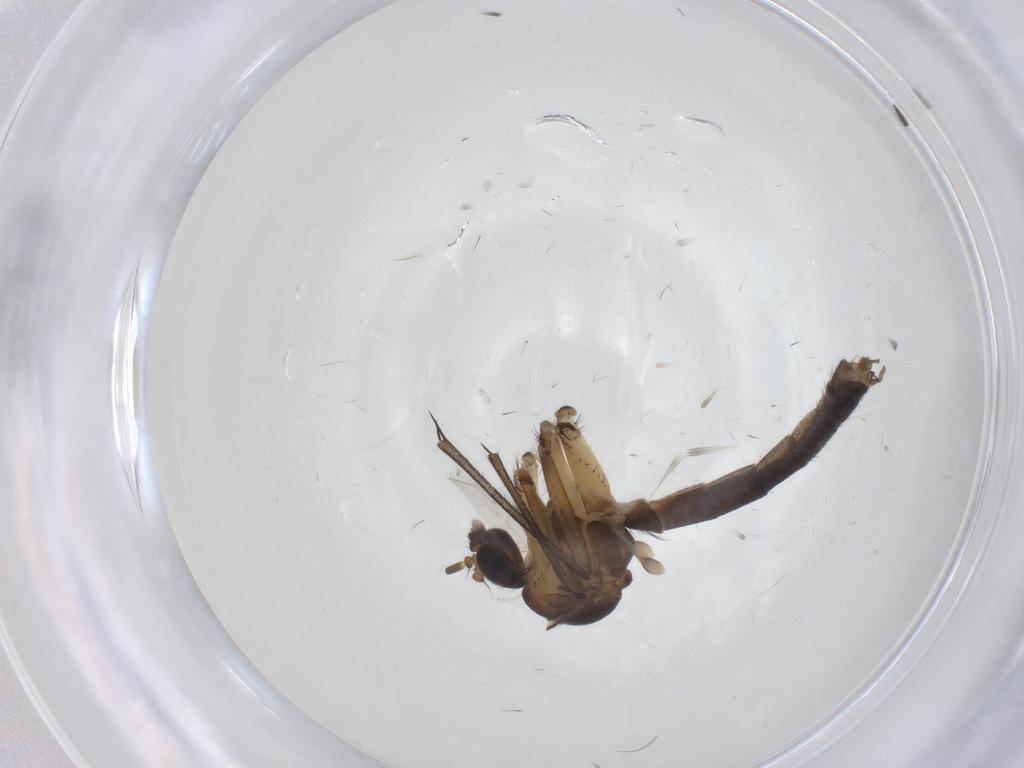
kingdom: Animalia
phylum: Arthropoda
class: Insecta
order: Diptera
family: Mycetophilidae
